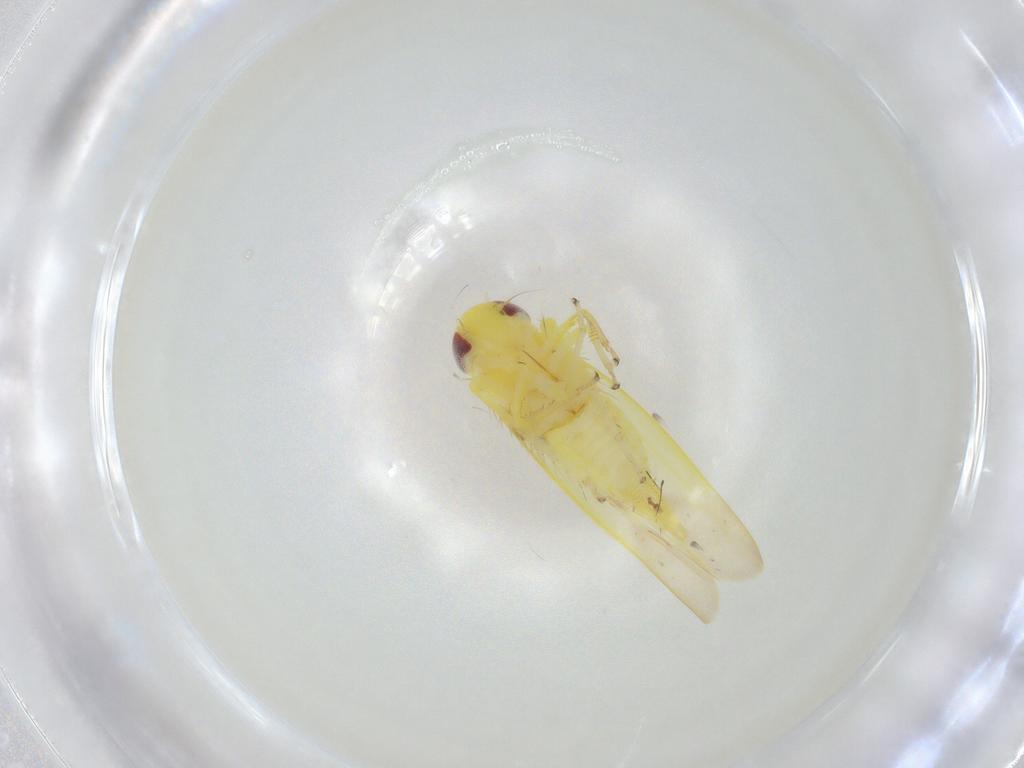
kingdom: Animalia
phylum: Arthropoda
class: Insecta
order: Hemiptera
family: Cicadellidae
